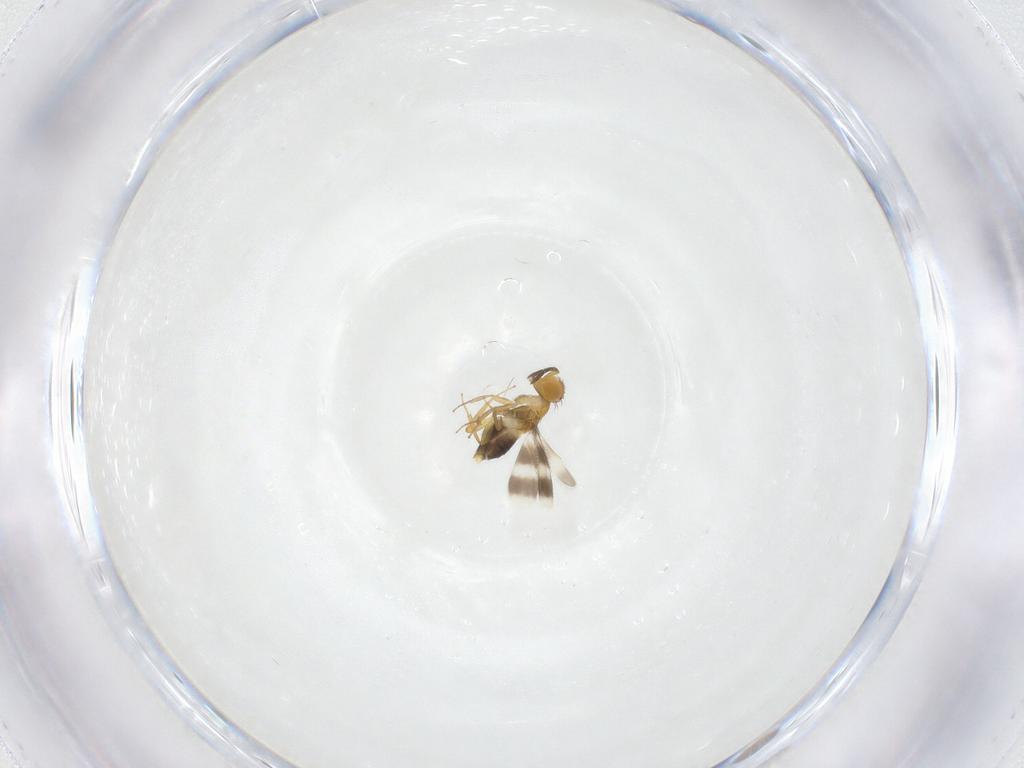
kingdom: Animalia
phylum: Arthropoda
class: Insecta
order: Hymenoptera
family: Aphelinidae
